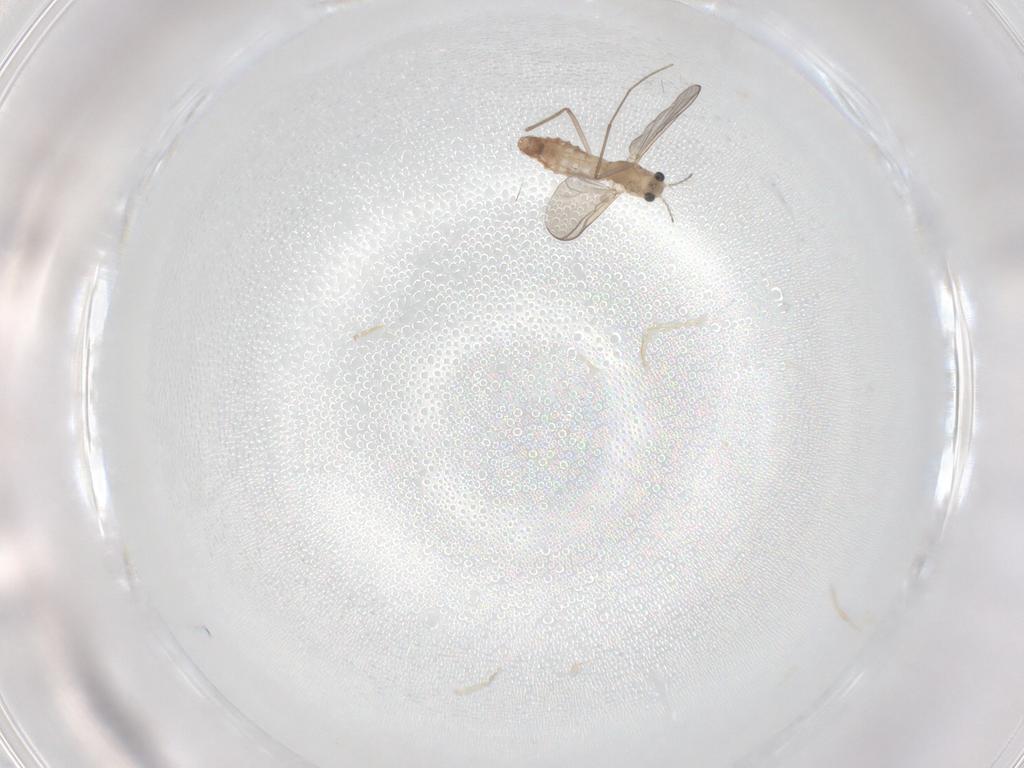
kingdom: Animalia
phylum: Arthropoda
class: Insecta
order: Diptera
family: Chironomidae
